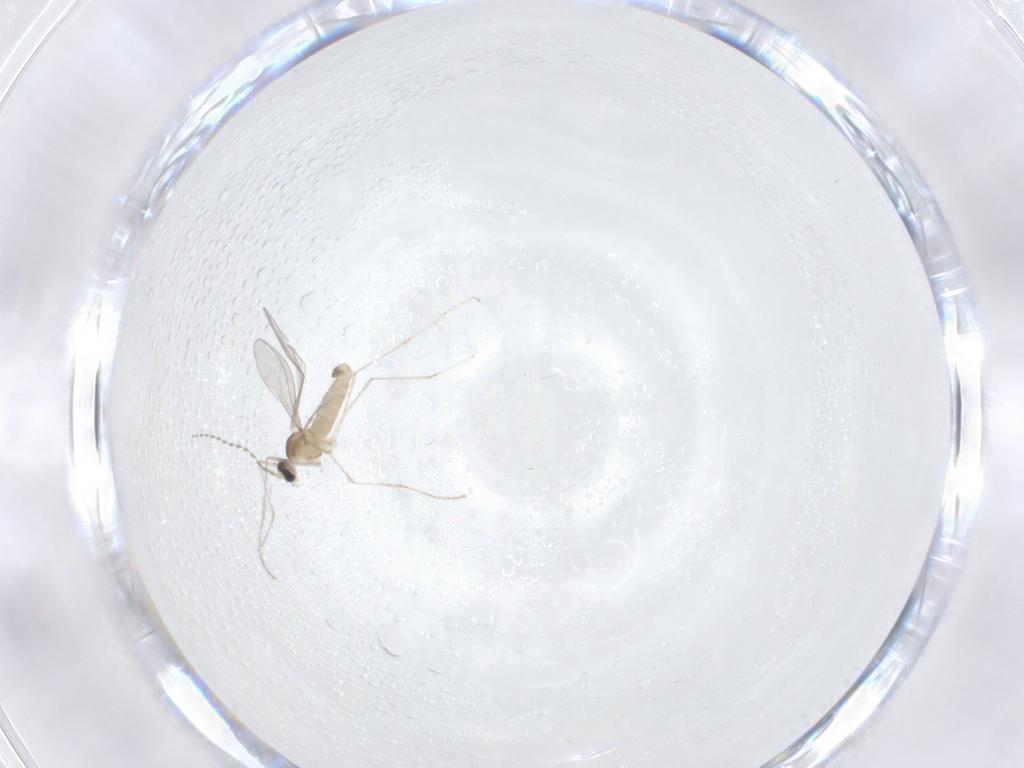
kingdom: Animalia
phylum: Arthropoda
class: Insecta
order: Diptera
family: Cecidomyiidae
